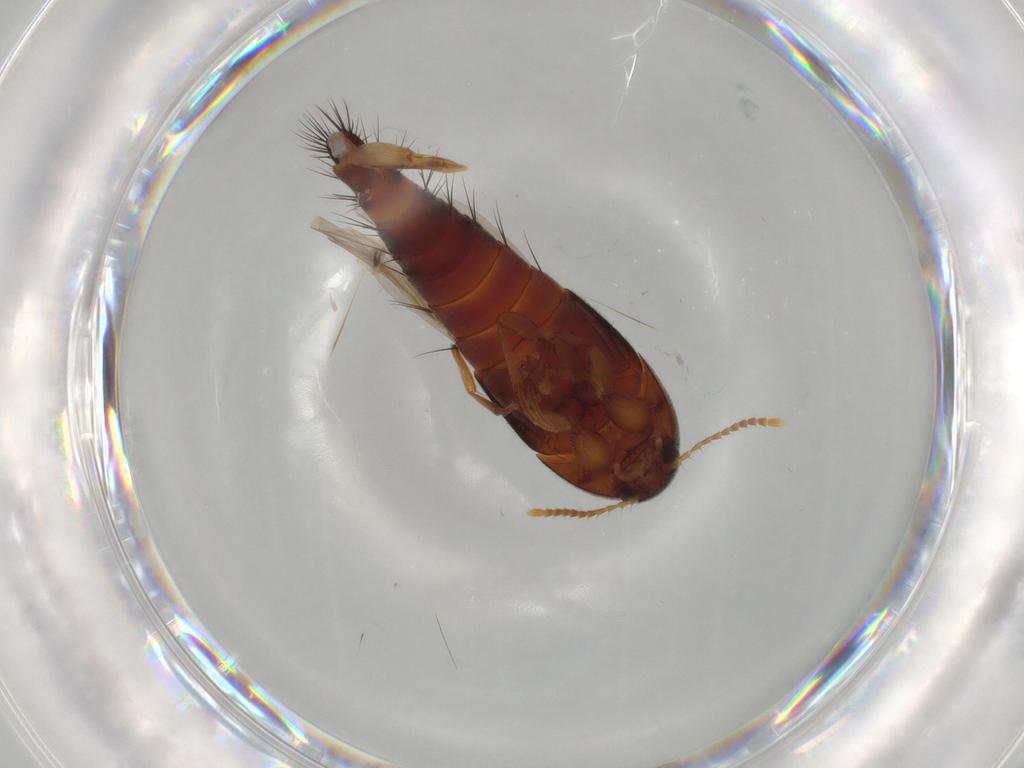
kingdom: Animalia
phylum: Arthropoda
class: Insecta
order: Coleoptera
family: Staphylinidae
